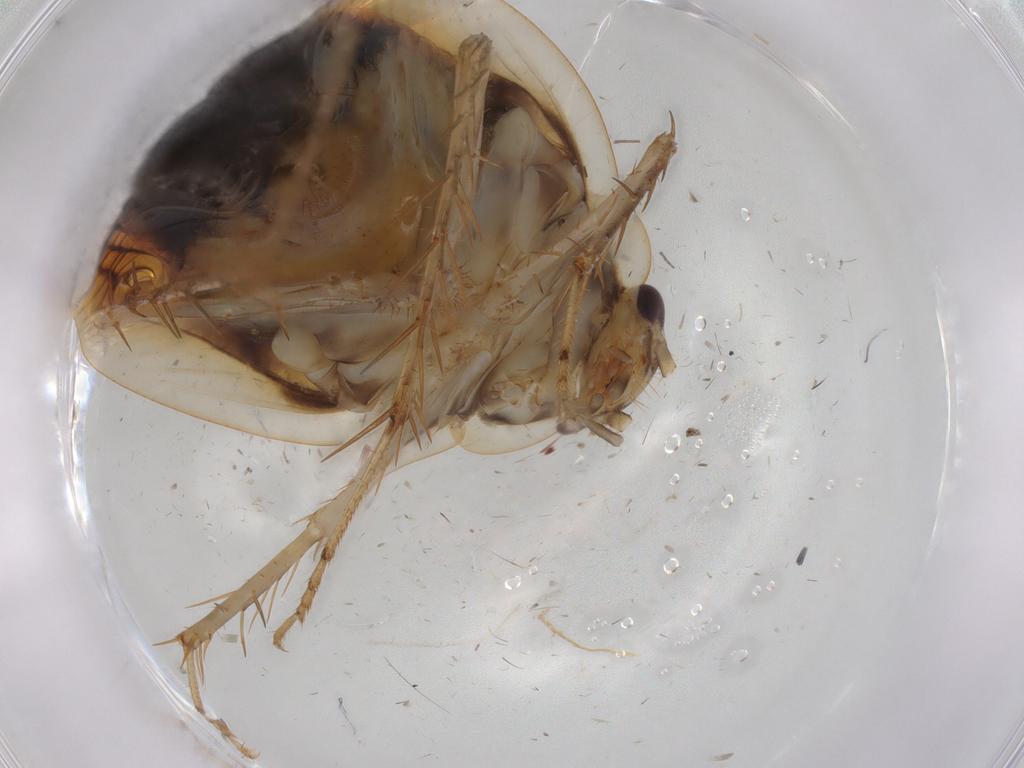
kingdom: Animalia
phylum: Arthropoda
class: Insecta
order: Blattodea
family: Ectobiidae
